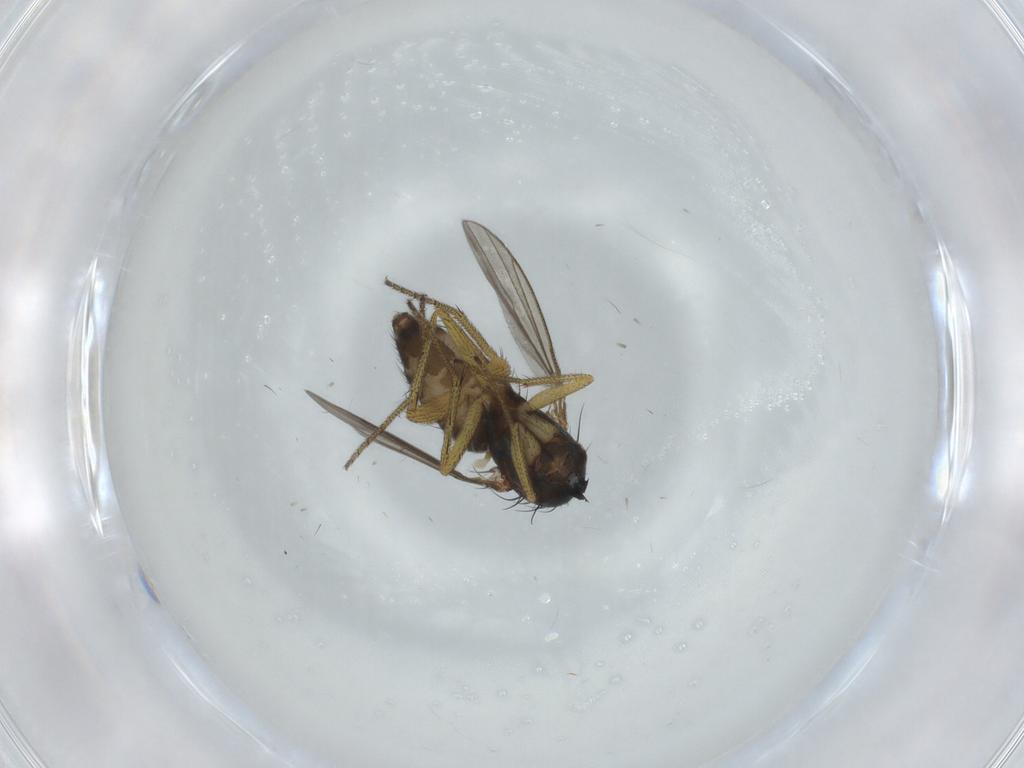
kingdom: Animalia
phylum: Arthropoda
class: Insecta
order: Diptera
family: Dolichopodidae
